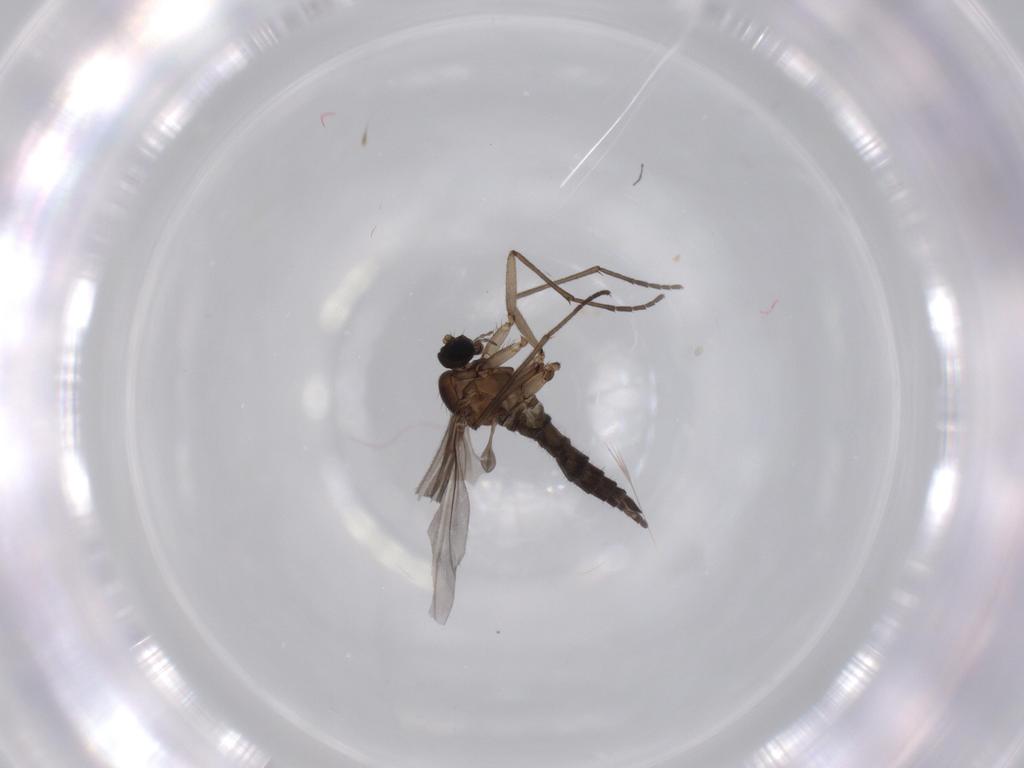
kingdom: Animalia
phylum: Arthropoda
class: Insecta
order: Diptera
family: Sciaridae
